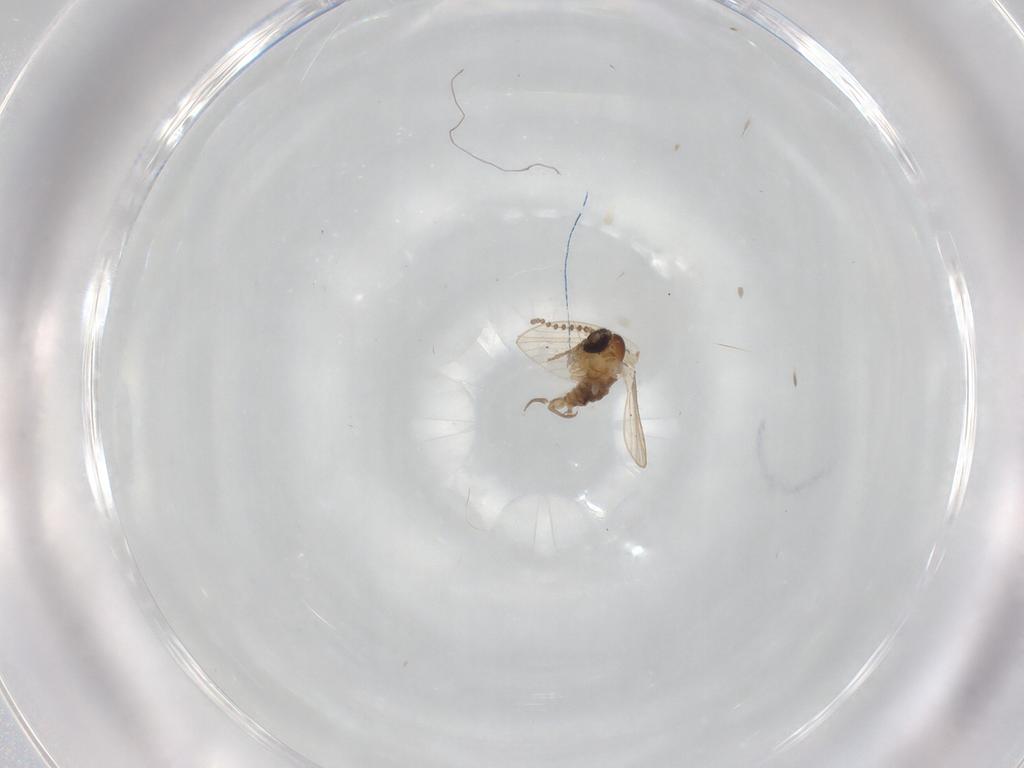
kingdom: Animalia
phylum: Arthropoda
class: Insecta
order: Diptera
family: Psychodidae
